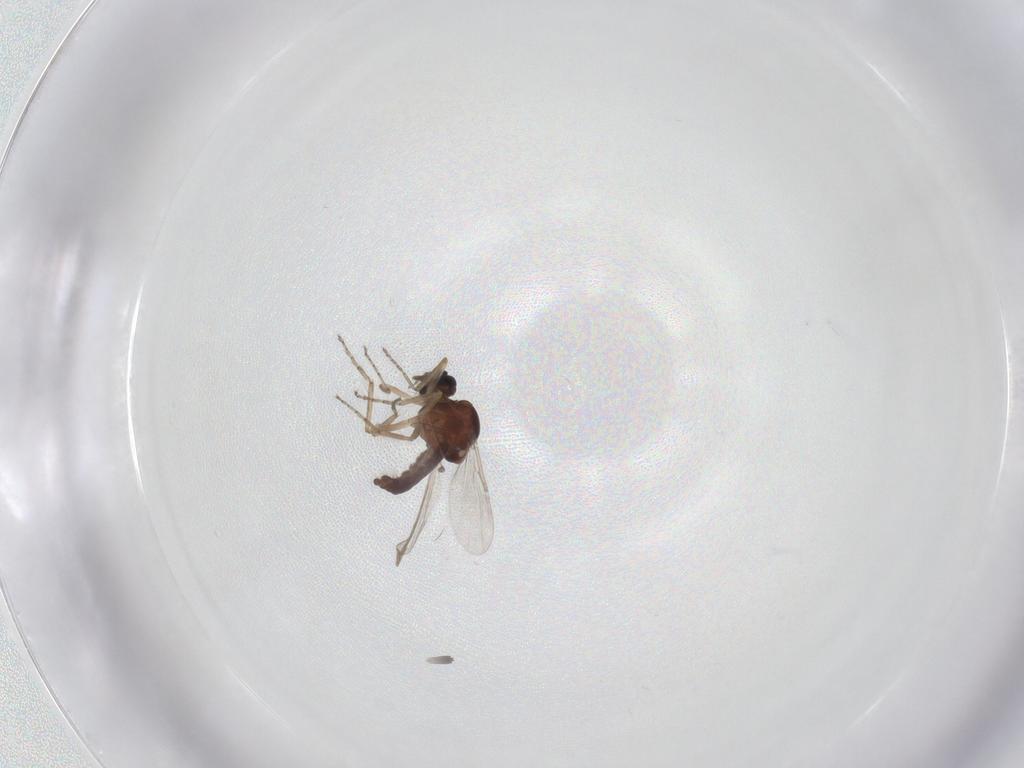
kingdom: Animalia
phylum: Arthropoda
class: Insecta
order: Diptera
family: Ceratopogonidae
